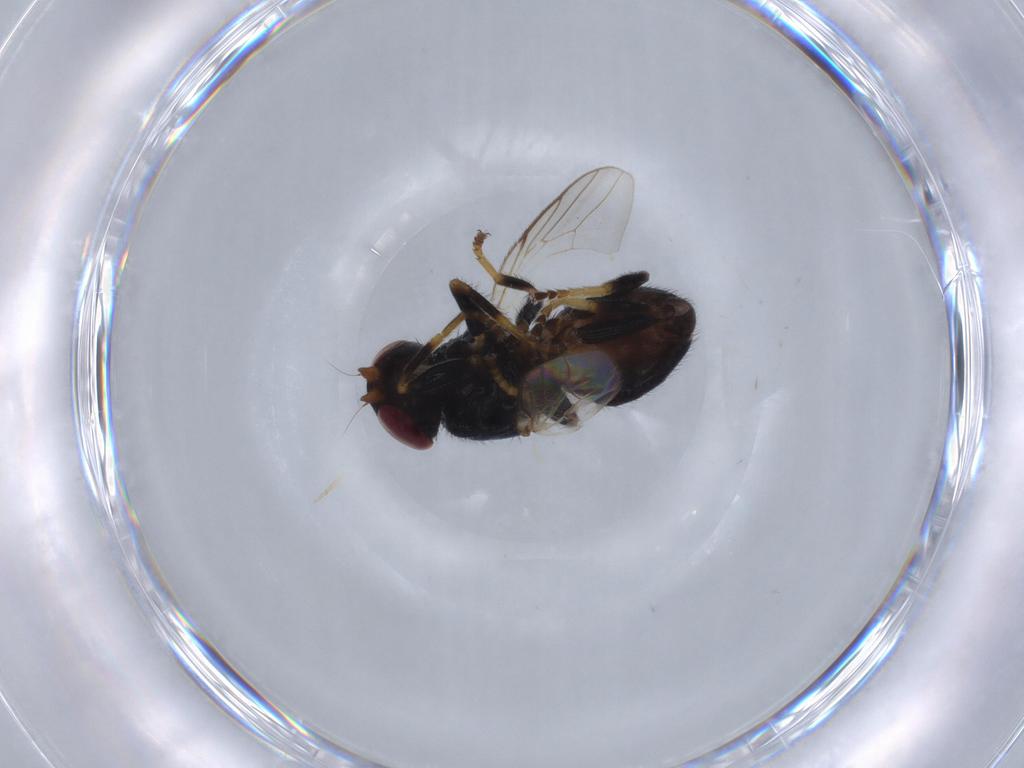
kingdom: Animalia
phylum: Arthropoda
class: Insecta
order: Diptera
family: Chloropidae
